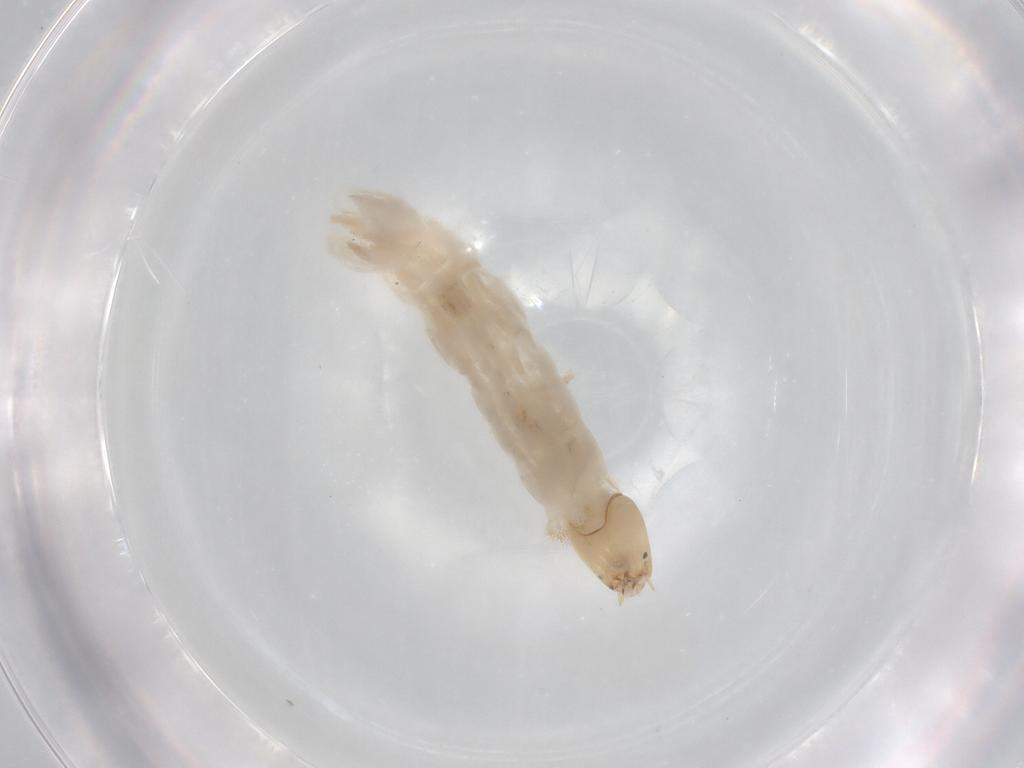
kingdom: Animalia
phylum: Arthropoda
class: Insecta
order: Diptera
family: Chironomidae
